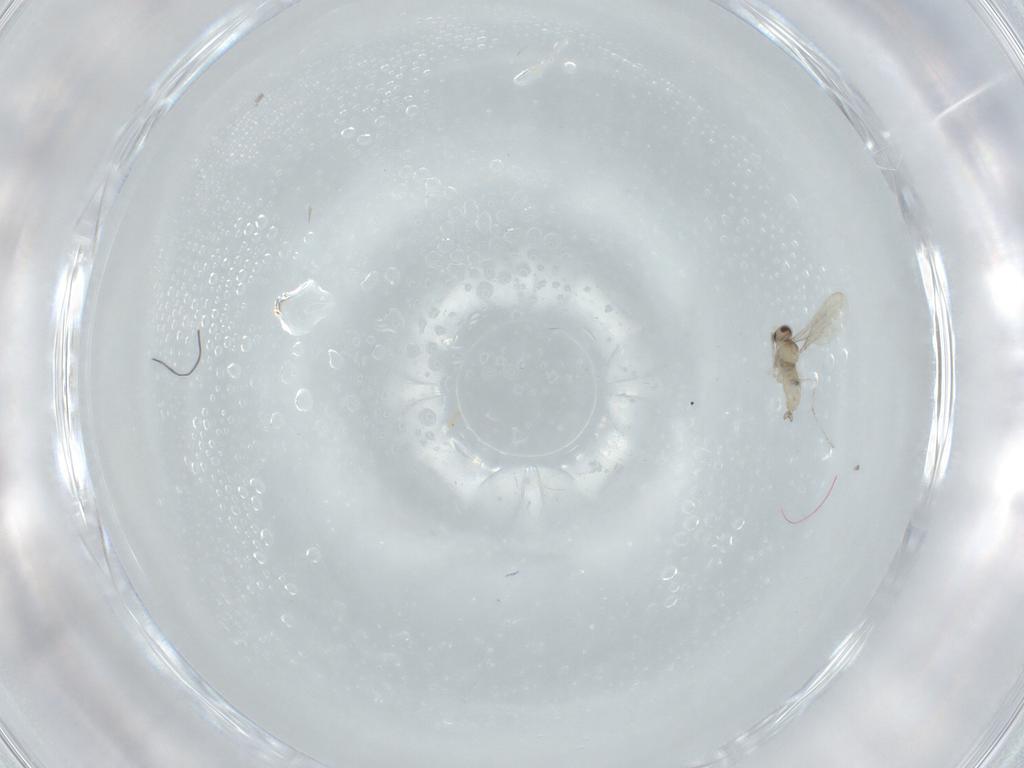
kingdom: Animalia
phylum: Arthropoda
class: Insecta
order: Diptera
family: Cecidomyiidae
